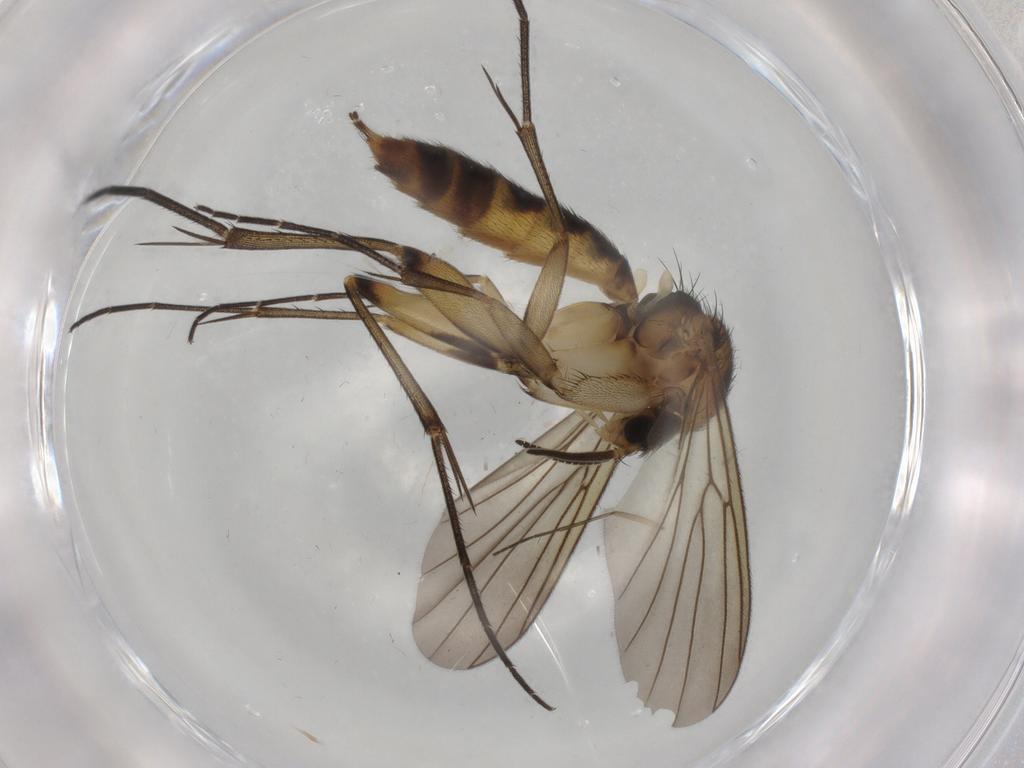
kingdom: Animalia
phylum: Arthropoda
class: Insecta
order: Diptera
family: Mycetophilidae
